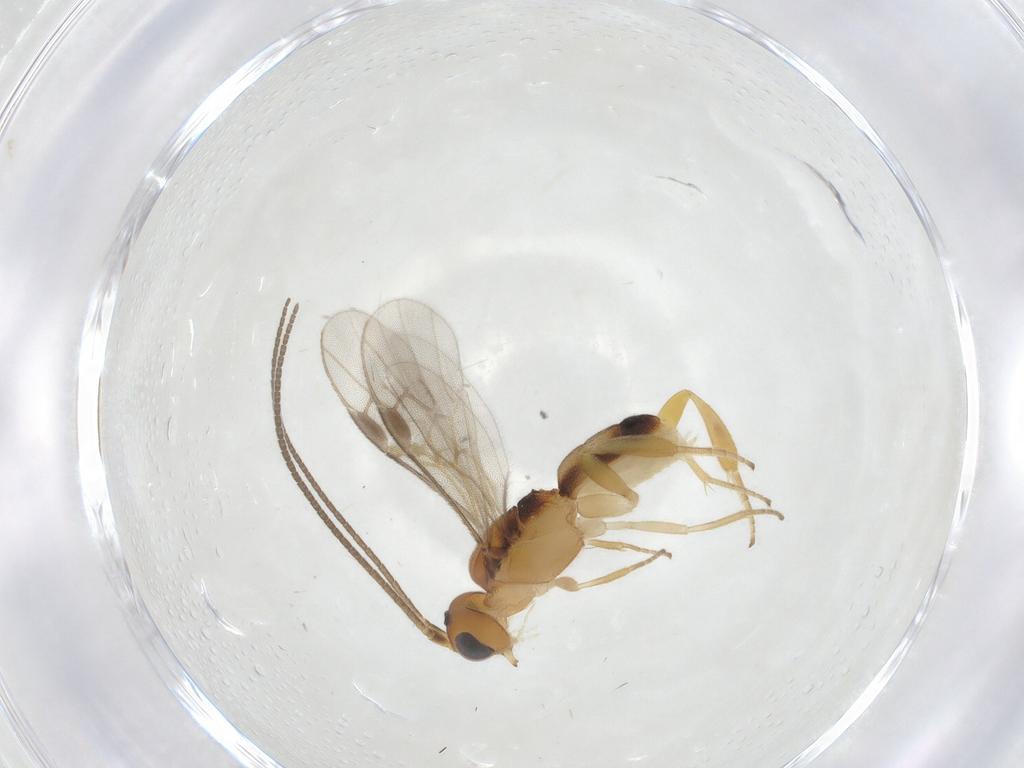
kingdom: Animalia
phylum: Arthropoda
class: Insecta
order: Hymenoptera
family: Braconidae
